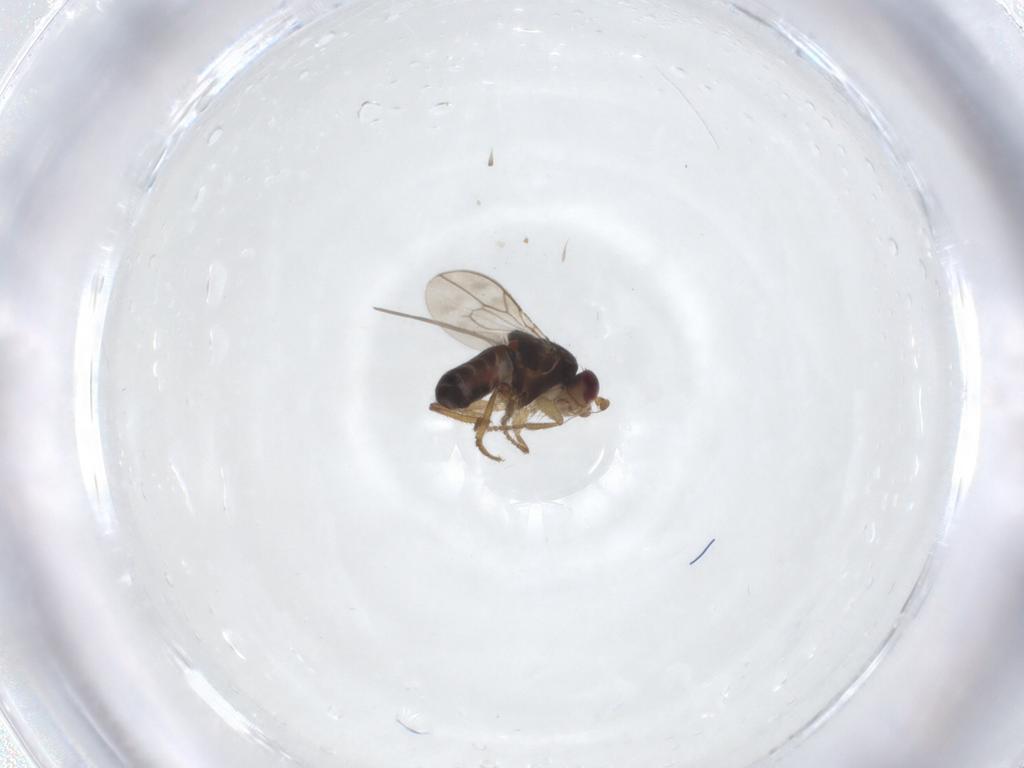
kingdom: Animalia
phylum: Arthropoda
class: Insecta
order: Diptera
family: Sphaeroceridae
